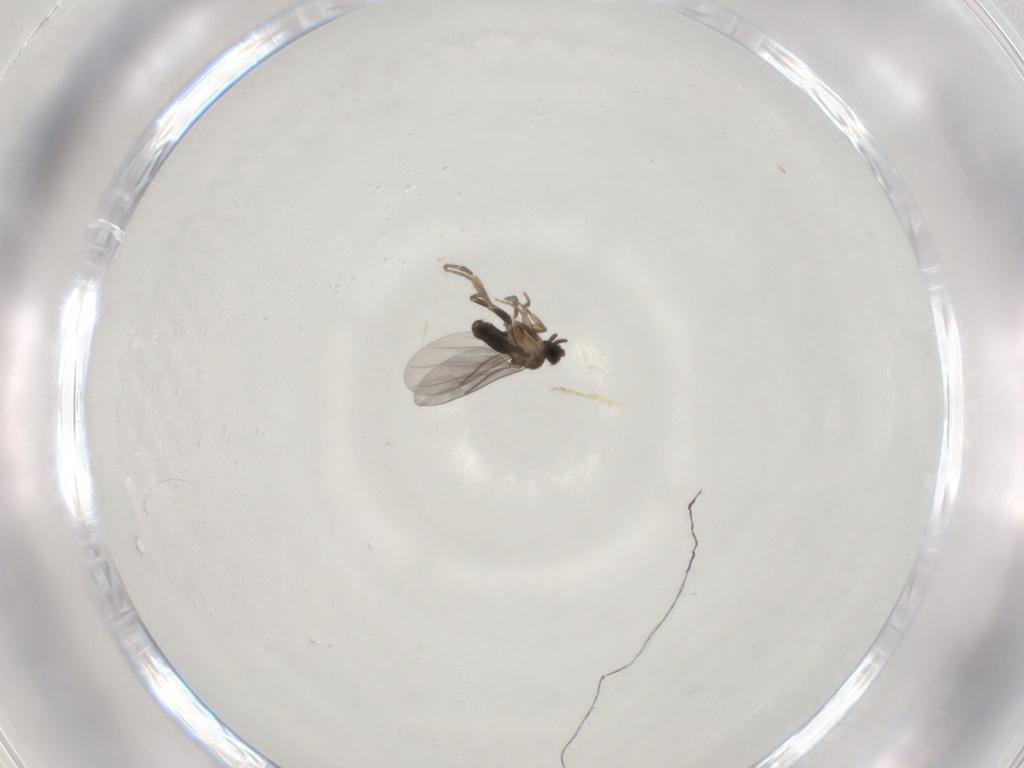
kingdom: Animalia
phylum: Arthropoda
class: Insecta
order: Diptera
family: Phoridae
